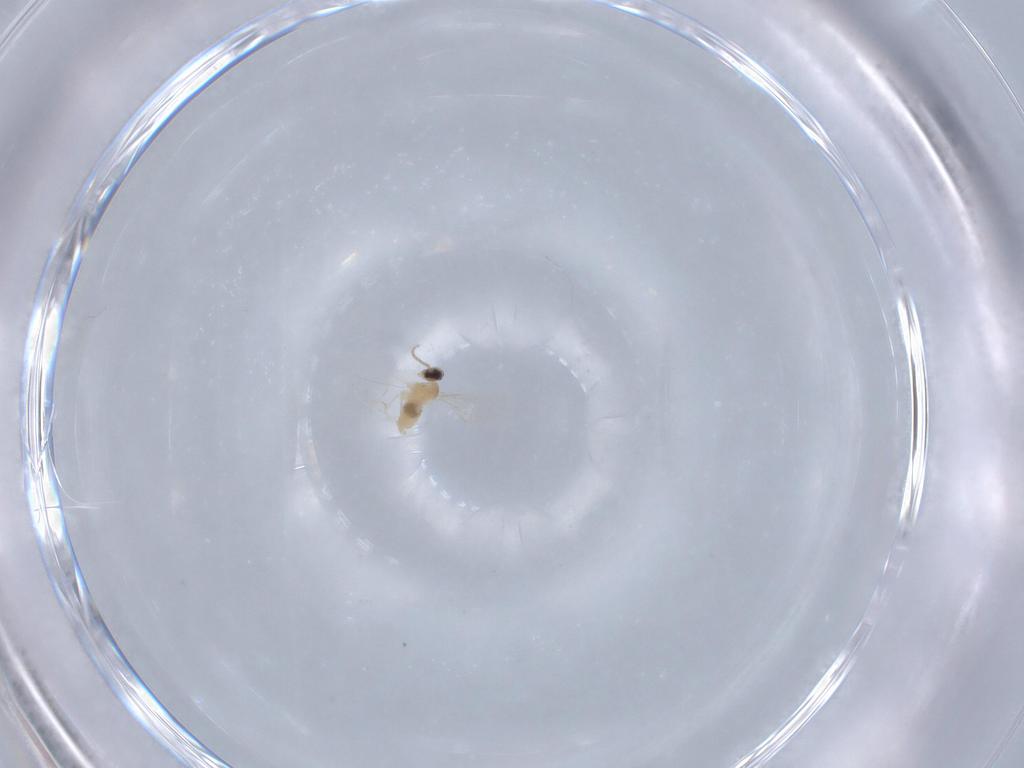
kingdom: Animalia
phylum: Arthropoda
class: Insecta
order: Diptera
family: Cecidomyiidae
